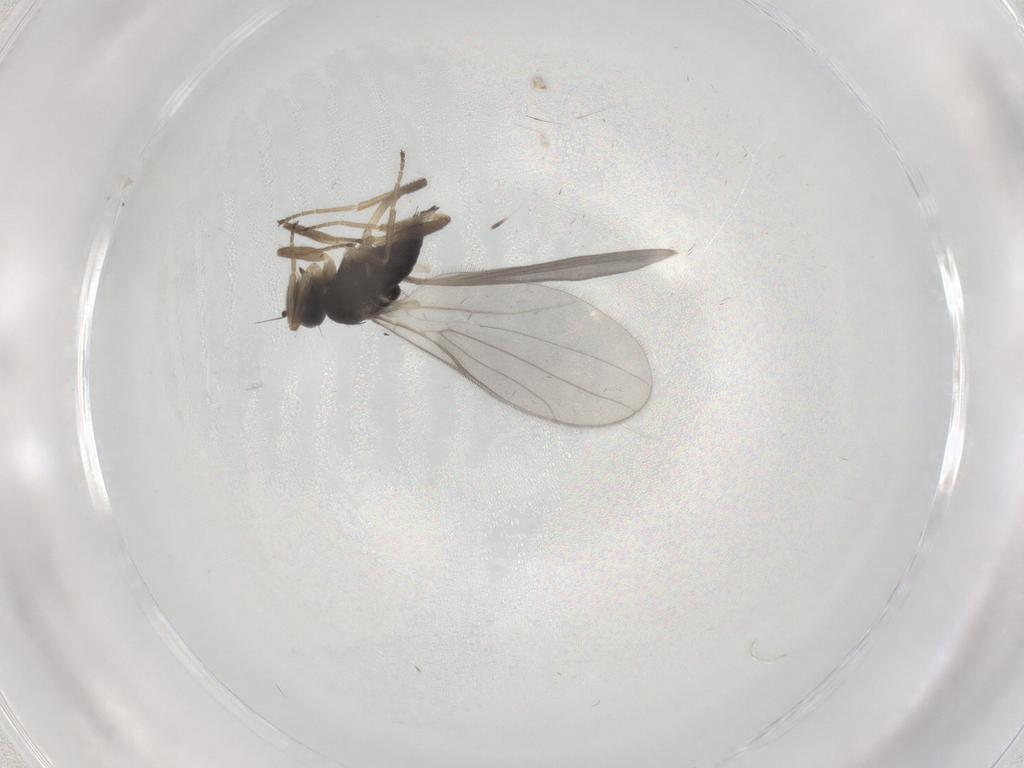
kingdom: Animalia
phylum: Arthropoda
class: Insecta
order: Diptera
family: Hybotidae
